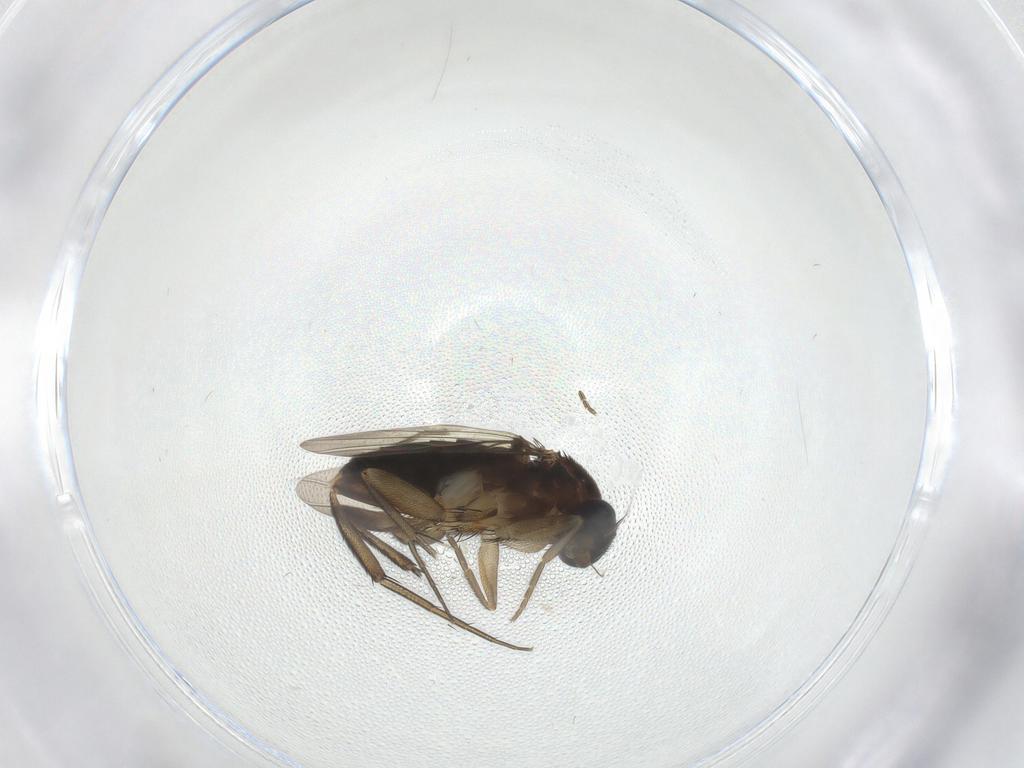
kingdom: Animalia
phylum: Arthropoda
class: Insecta
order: Diptera
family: Phoridae
